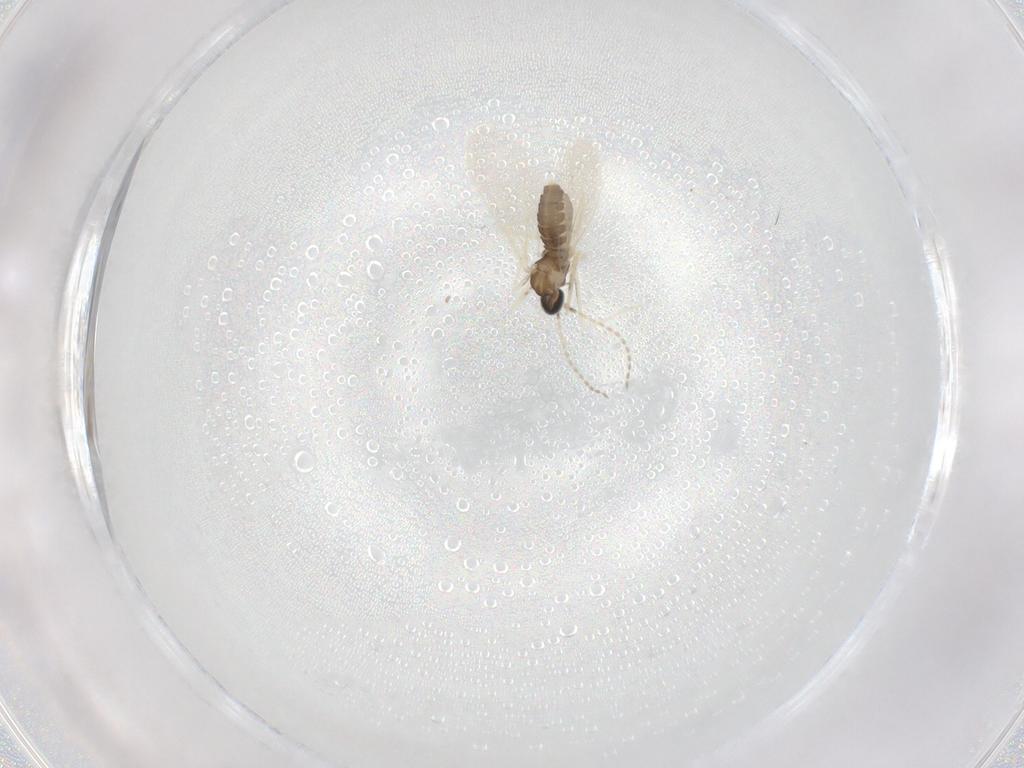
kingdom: Animalia
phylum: Arthropoda
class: Insecta
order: Diptera
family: Cecidomyiidae
